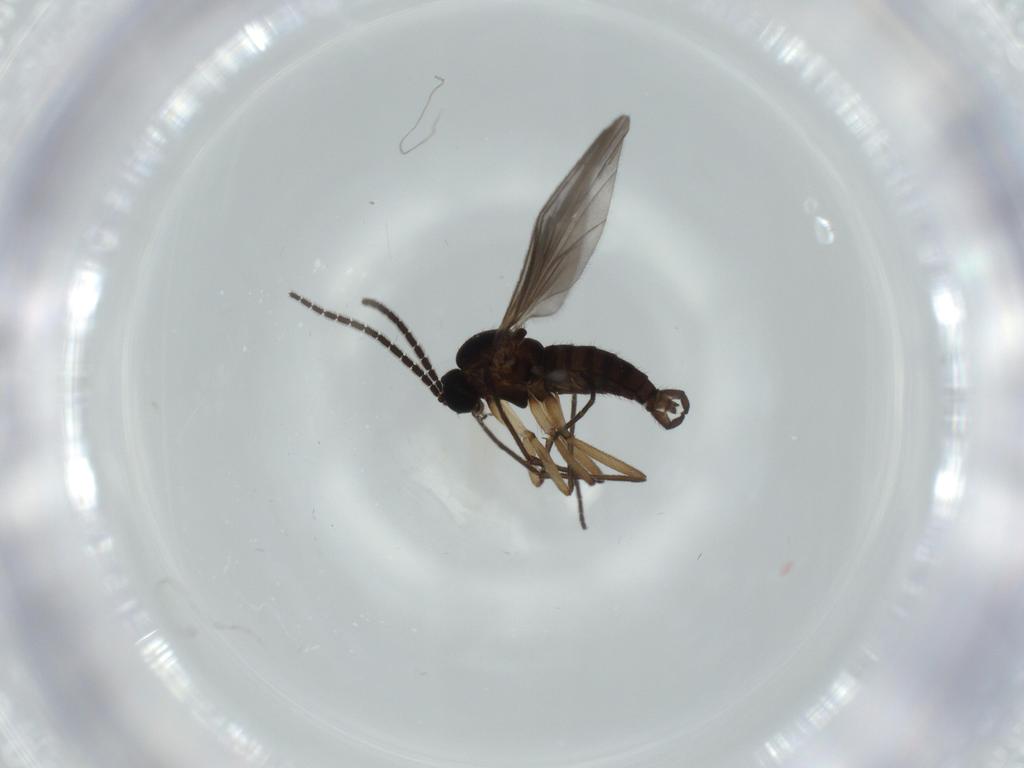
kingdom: Animalia
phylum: Arthropoda
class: Insecta
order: Diptera
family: Sciaridae
